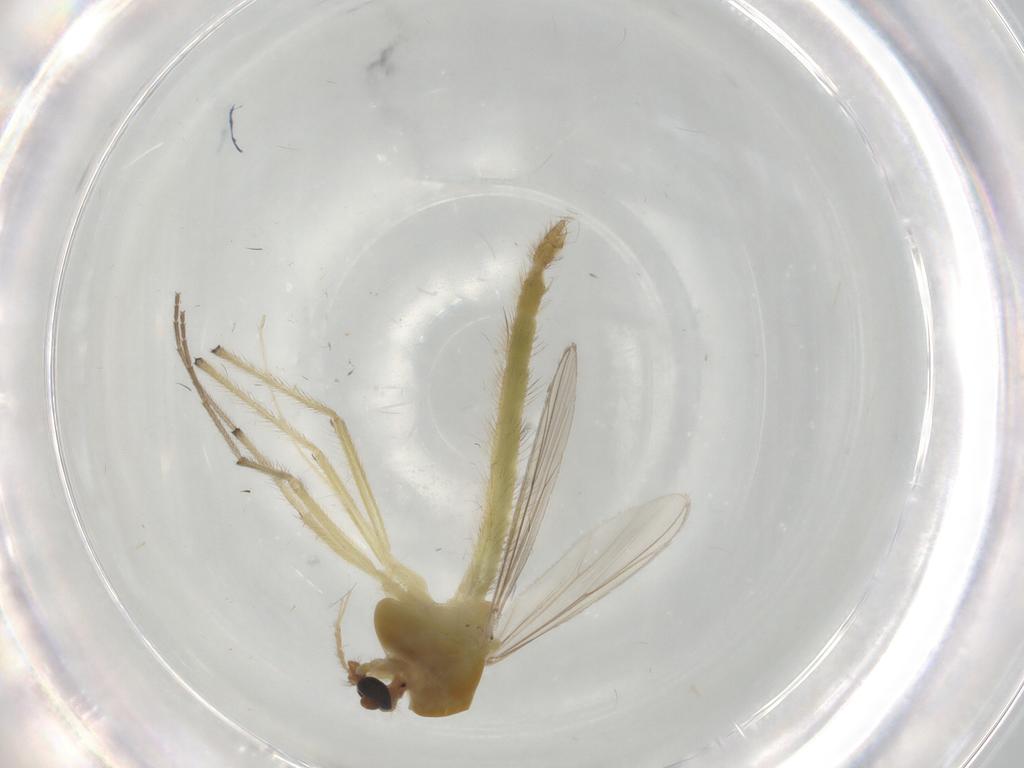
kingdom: Animalia
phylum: Arthropoda
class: Insecta
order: Diptera
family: Chironomidae
